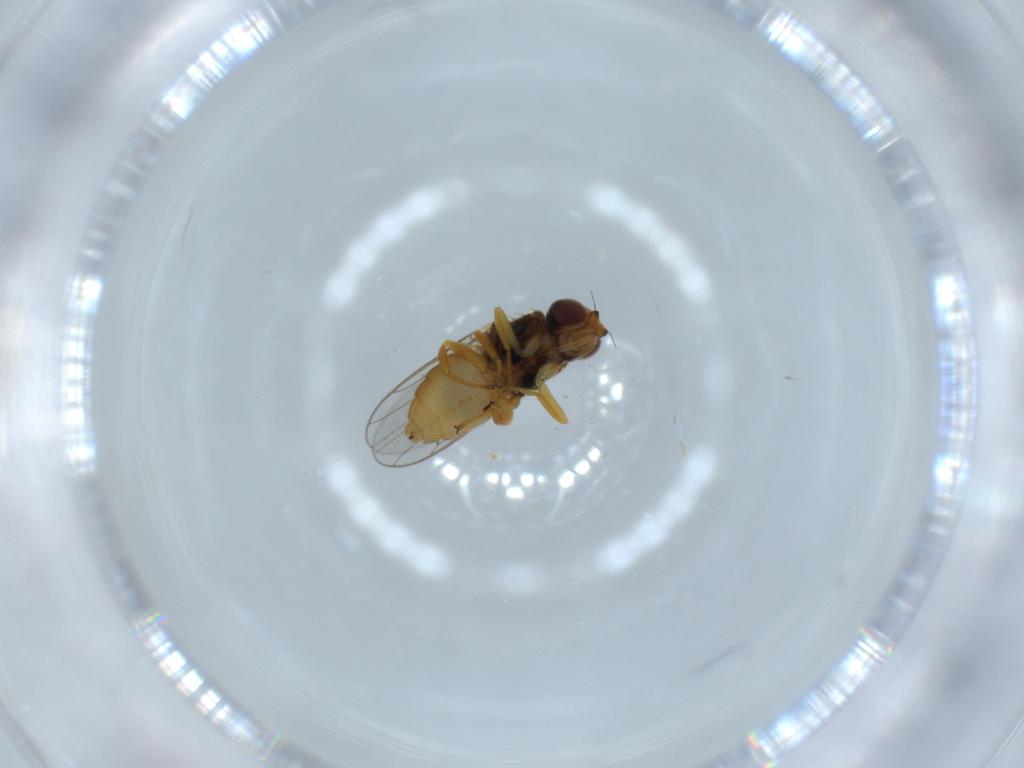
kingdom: Animalia
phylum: Arthropoda
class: Insecta
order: Diptera
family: Chloropidae
